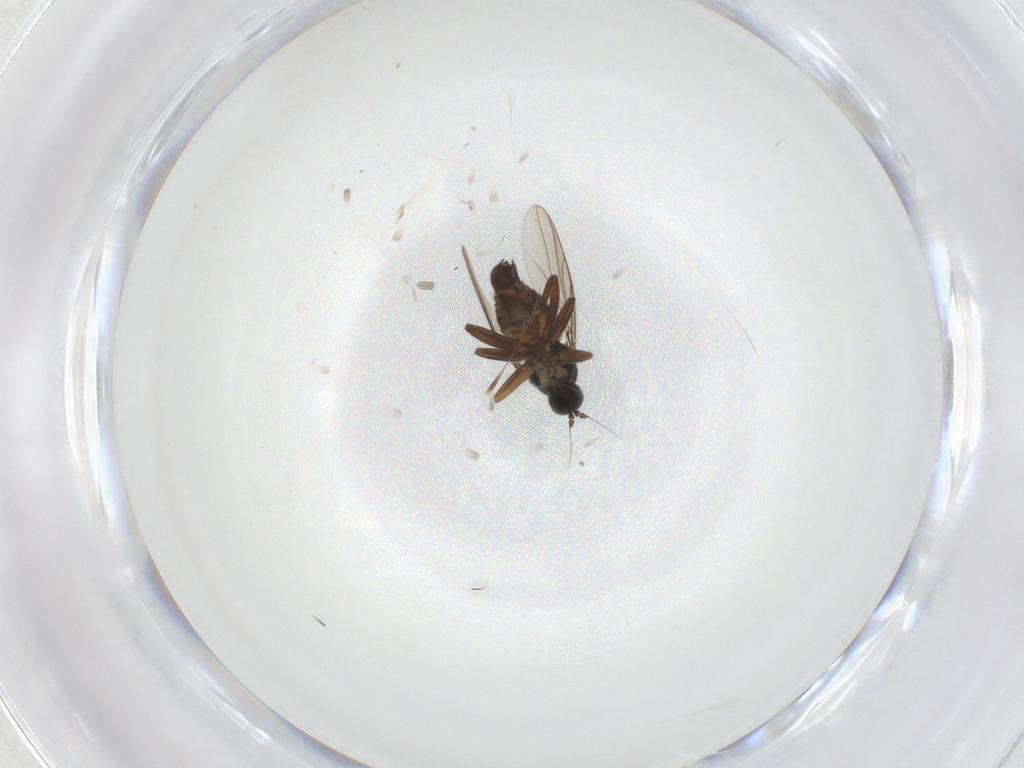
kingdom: Animalia
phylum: Arthropoda
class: Insecta
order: Diptera
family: Hybotidae
